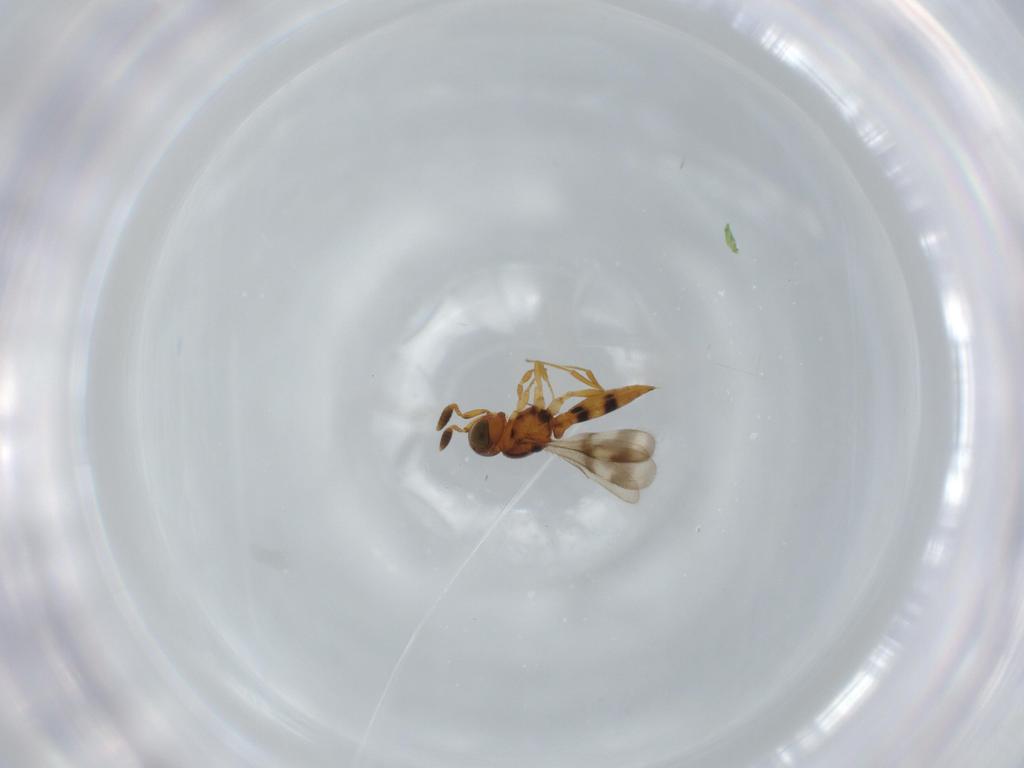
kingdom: Animalia
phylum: Arthropoda
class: Insecta
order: Hymenoptera
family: Scelionidae
